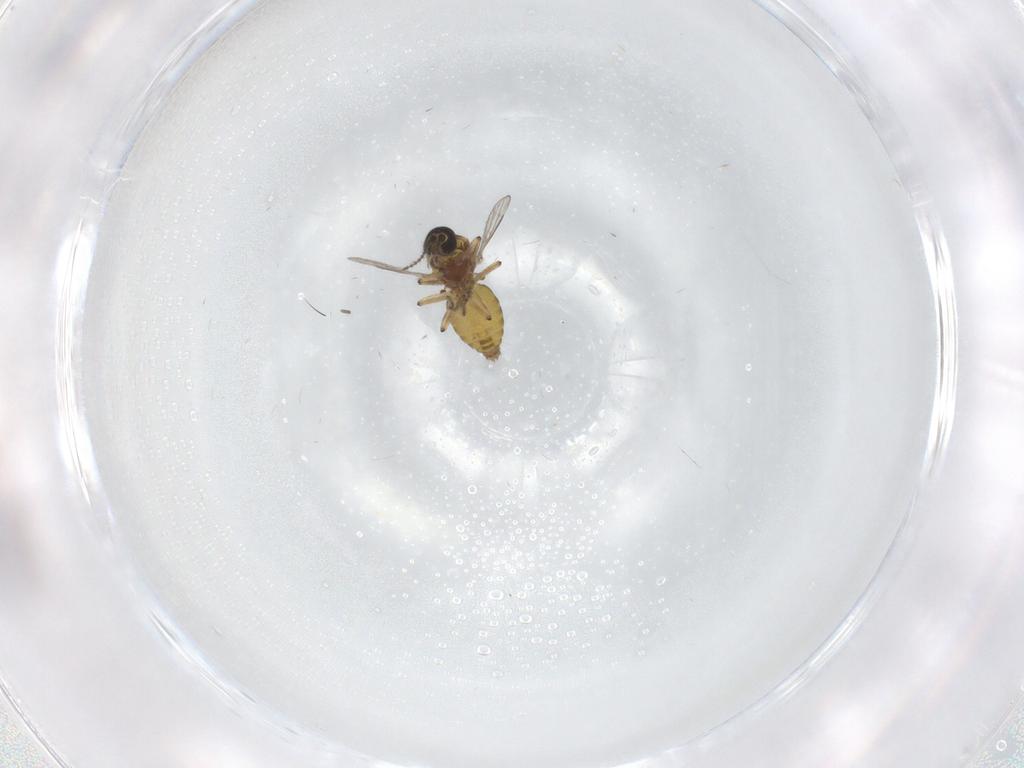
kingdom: Animalia
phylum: Arthropoda
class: Insecta
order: Diptera
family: Ceratopogonidae
